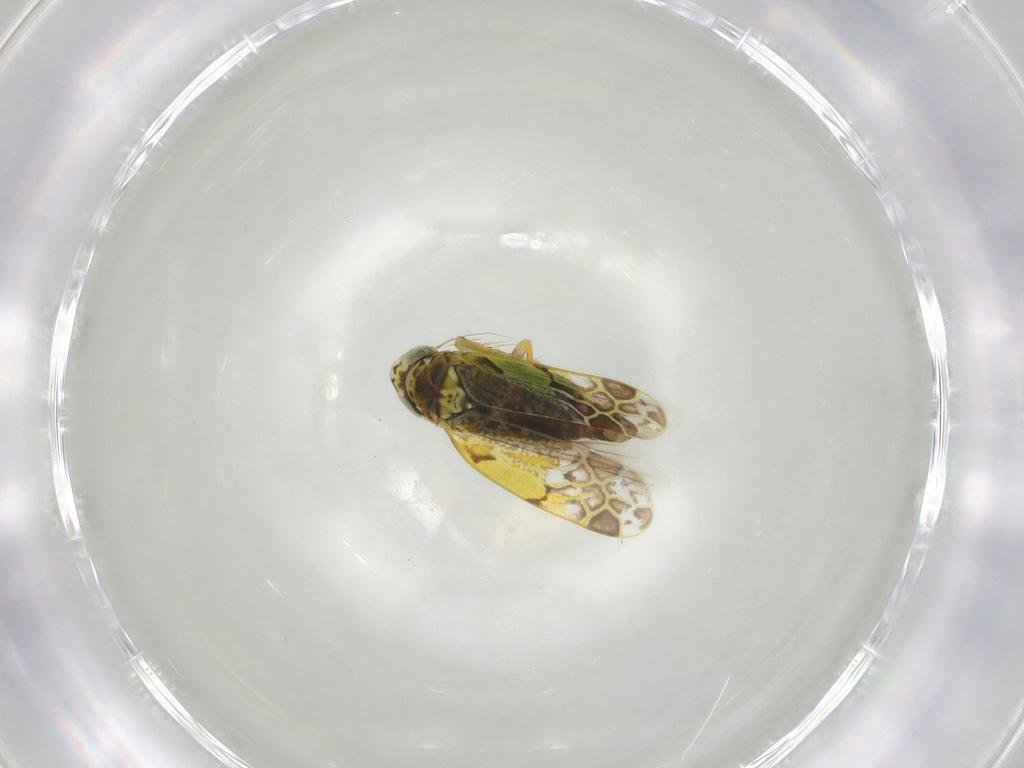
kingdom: Animalia
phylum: Arthropoda
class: Insecta
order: Hemiptera
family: Cicadellidae
